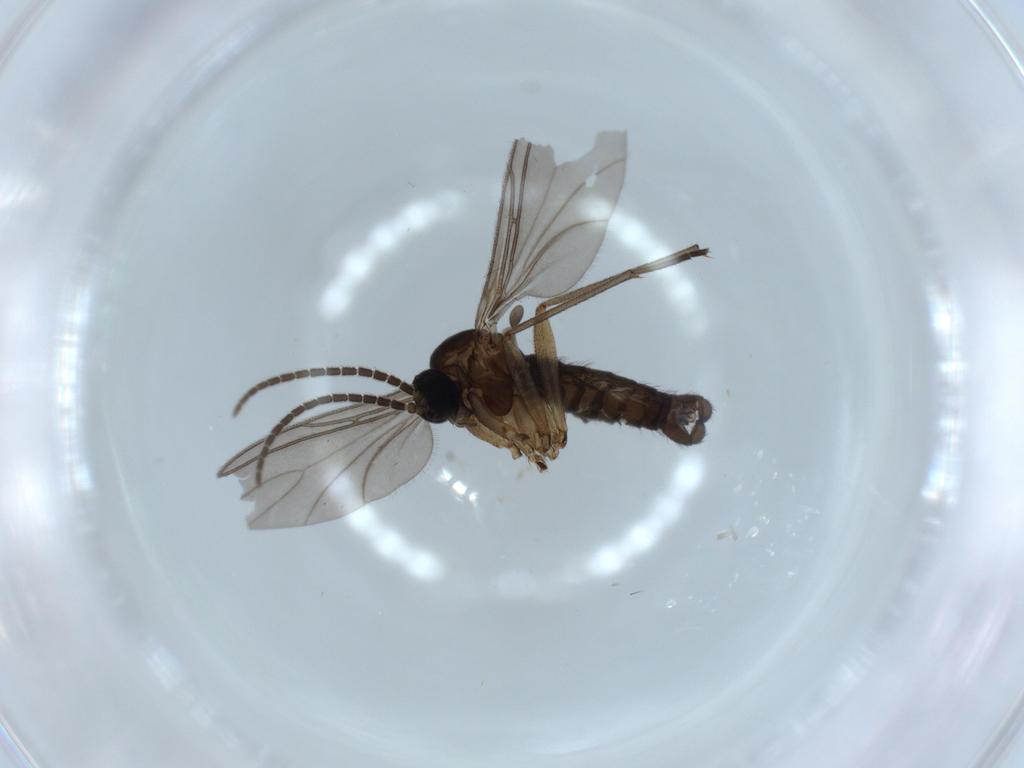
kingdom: Animalia
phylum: Arthropoda
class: Insecta
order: Diptera
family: Sciaridae
